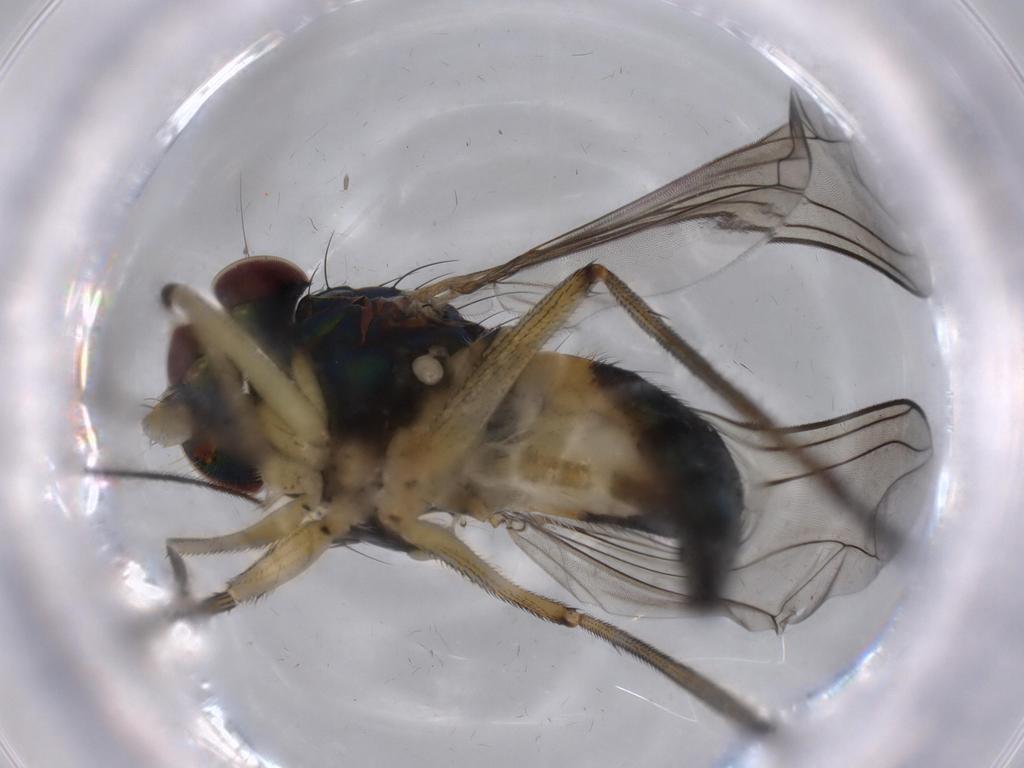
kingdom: Animalia
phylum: Arthropoda
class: Insecta
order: Diptera
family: Dolichopodidae
